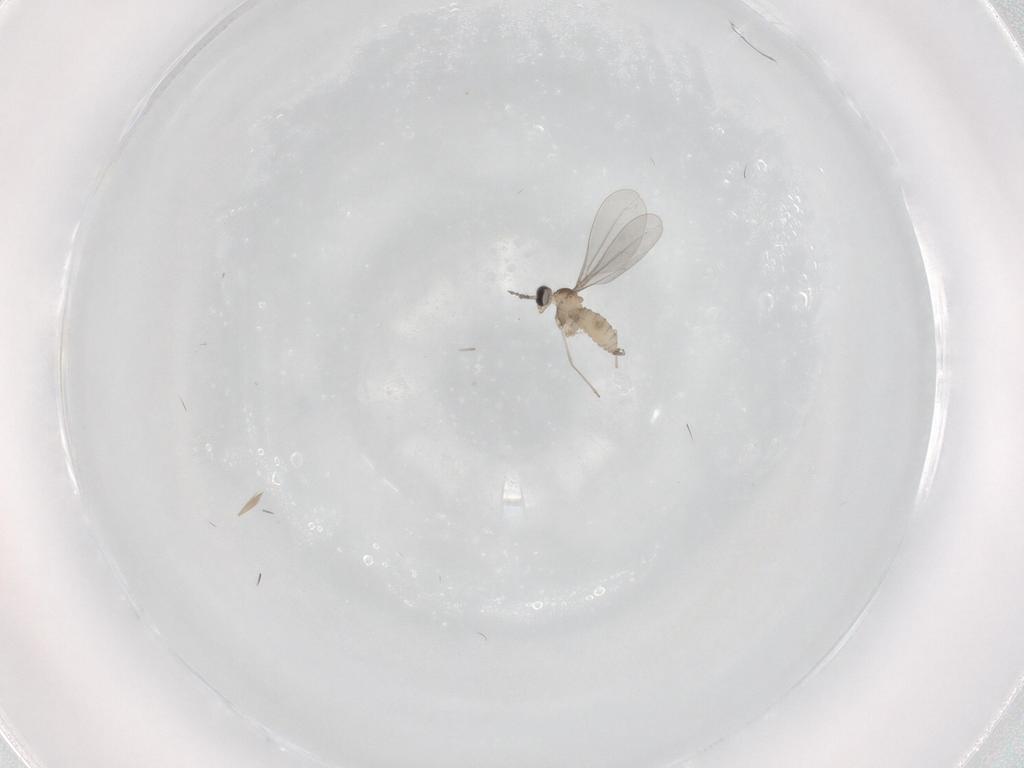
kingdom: Animalia
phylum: Arthropoda
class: Insecta
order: Diptera
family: Cecidomyiidae
